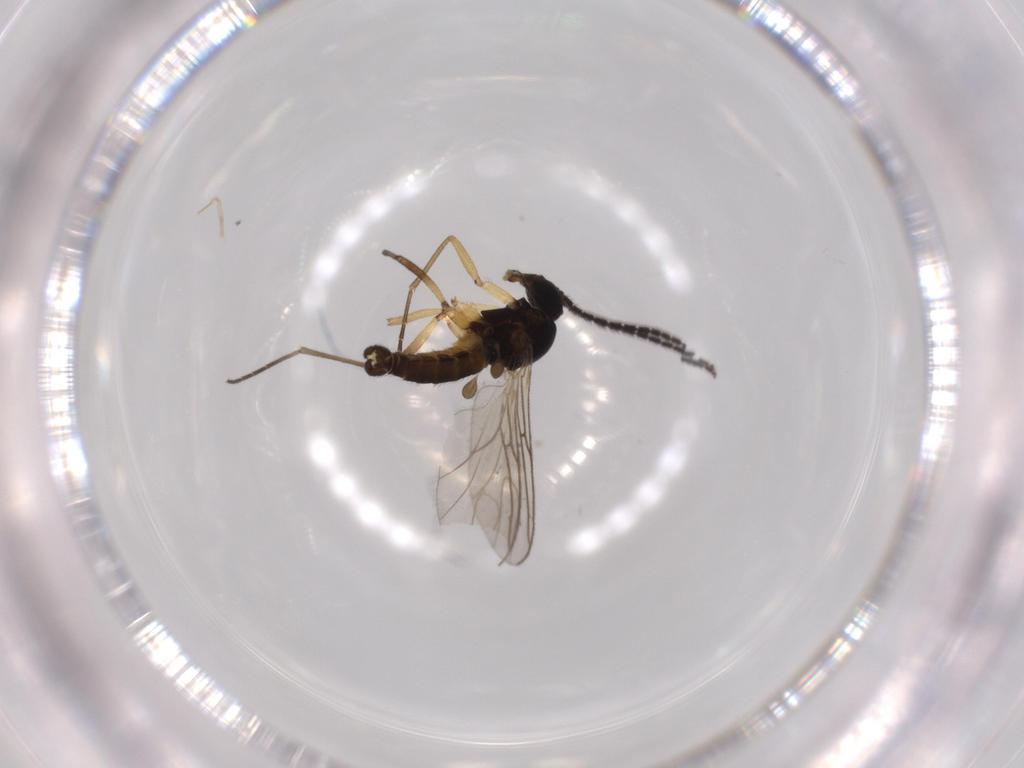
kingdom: Animalia
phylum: Arthropoda
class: Insecta
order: Diptera
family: Sciaridae
